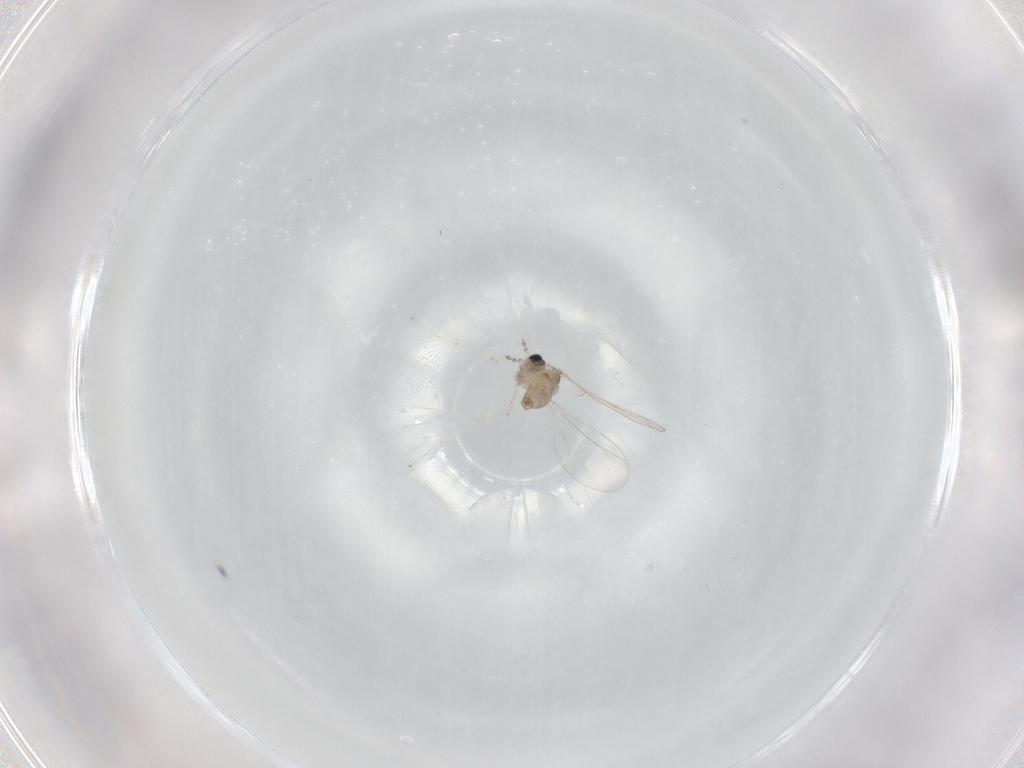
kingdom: Animalia
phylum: Arthropoda
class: Insecta
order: Diptera
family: Cecidomyiidae
